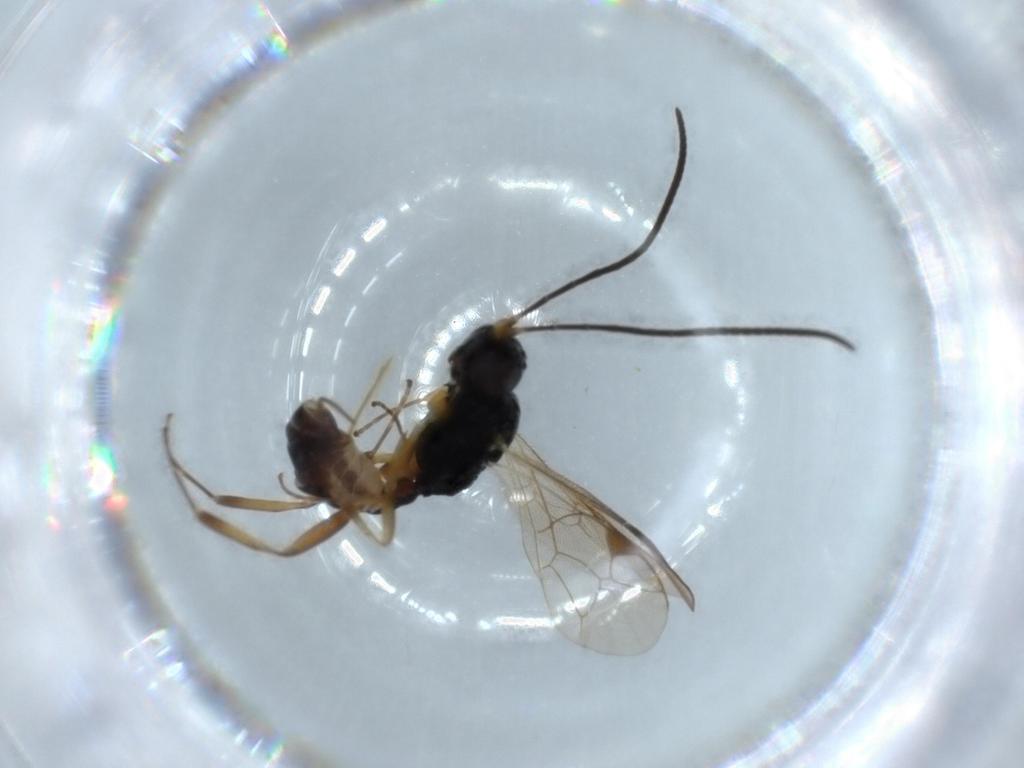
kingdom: Animalia
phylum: Arthropoda
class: Insecta
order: Hymenoptera
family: Ichneumonidae
